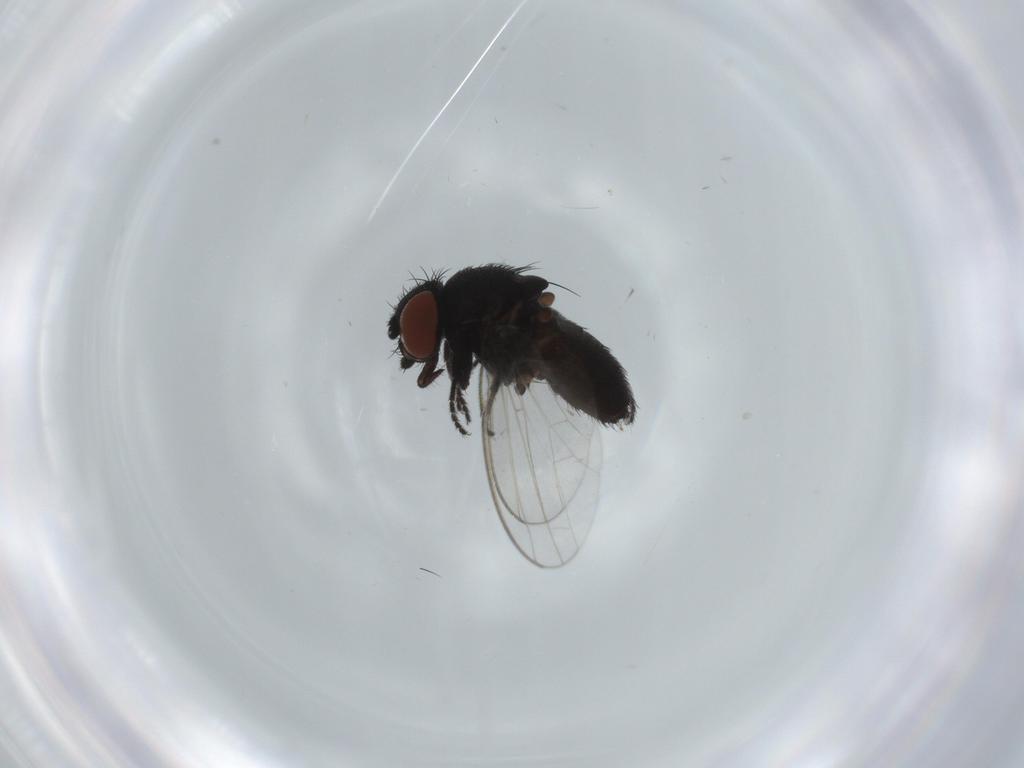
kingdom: Animalia
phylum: Arthropoda
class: Insecta
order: Diptera
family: Milichiidae
